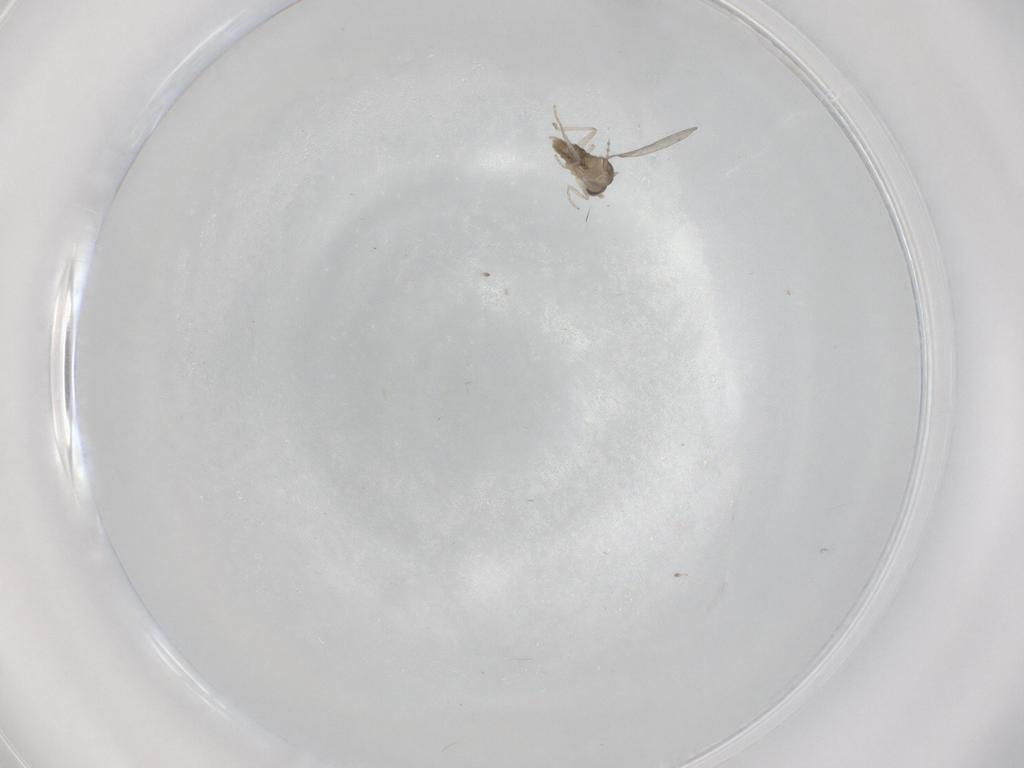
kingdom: Animalia
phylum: Arthropoda
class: Insecta
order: Diptera
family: Cecidomyiidae
